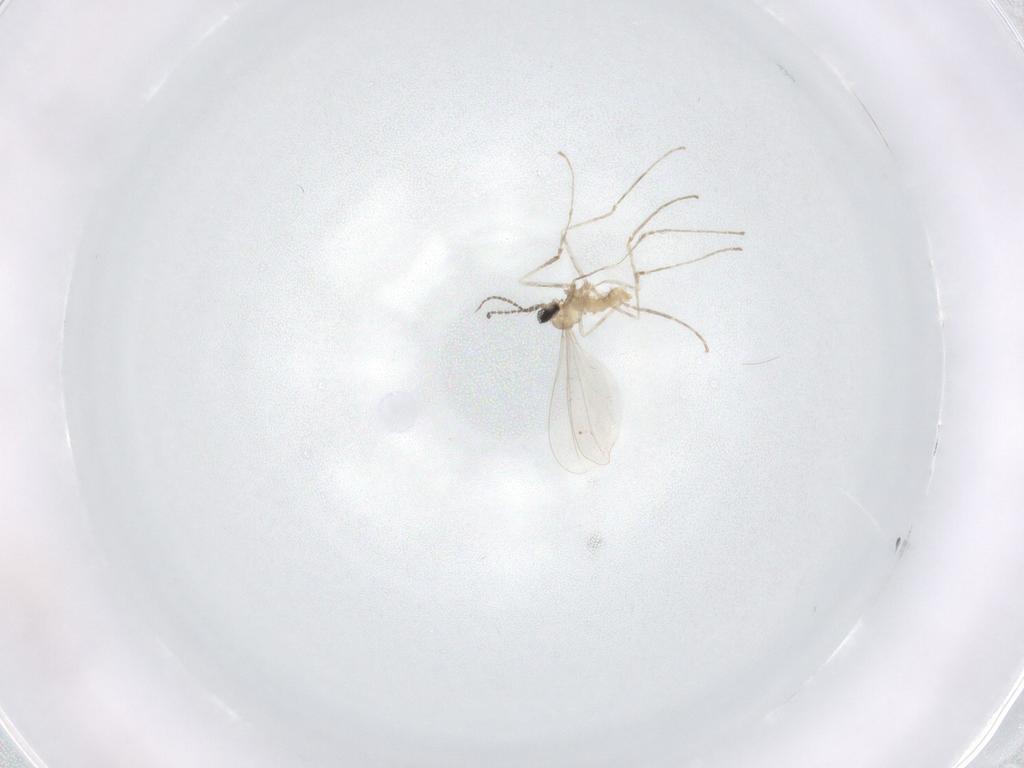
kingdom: Animalia
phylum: Arthropoda
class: Insecta
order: Diptera
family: Cecidomyiidae
